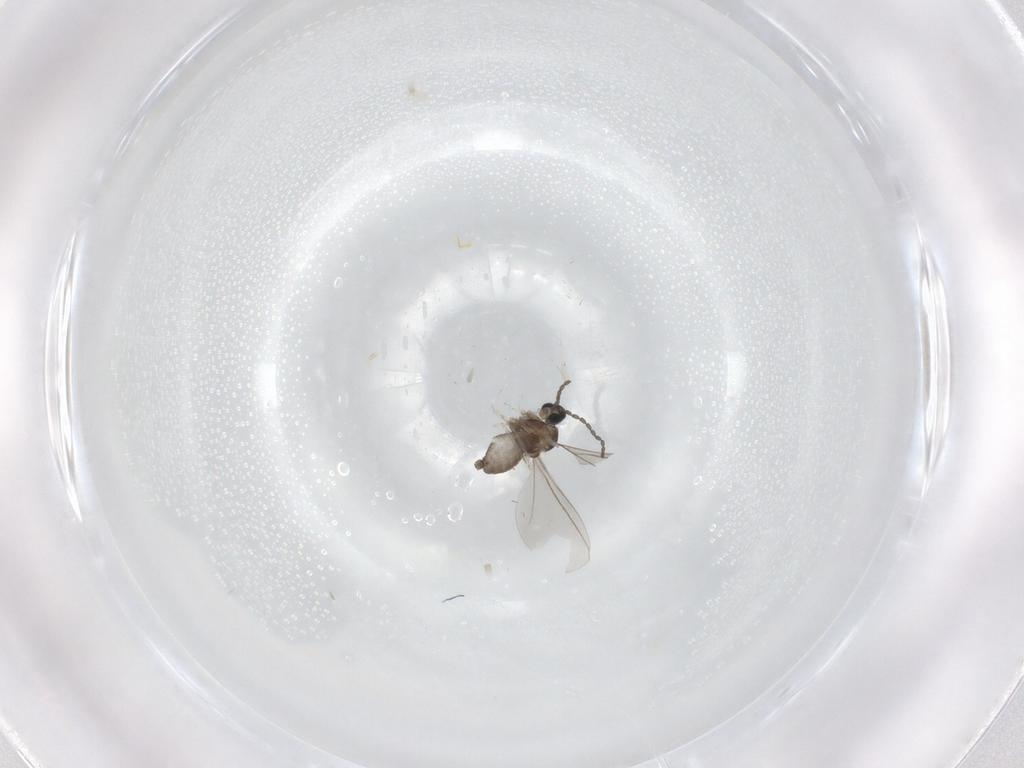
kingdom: Animalia
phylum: Arthropoda
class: Insecta
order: Diptera
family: Cecidomyiidae
